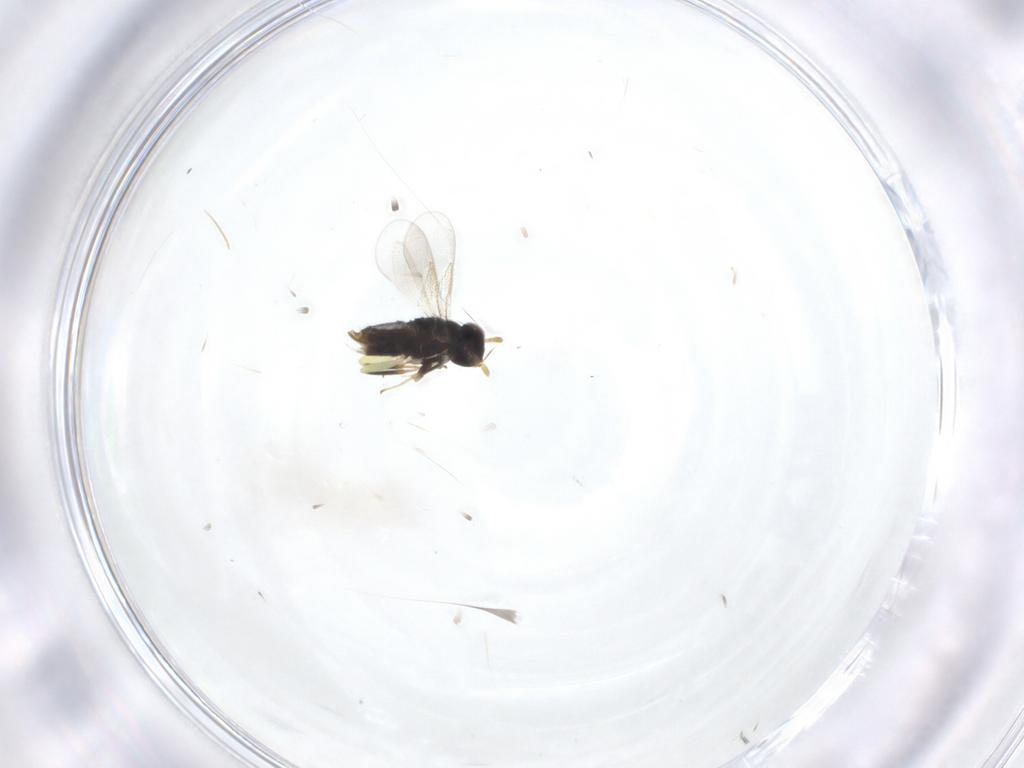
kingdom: Animalia
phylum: Arthropoda
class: Insecta
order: Hymenoptera
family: Aphelinidae
